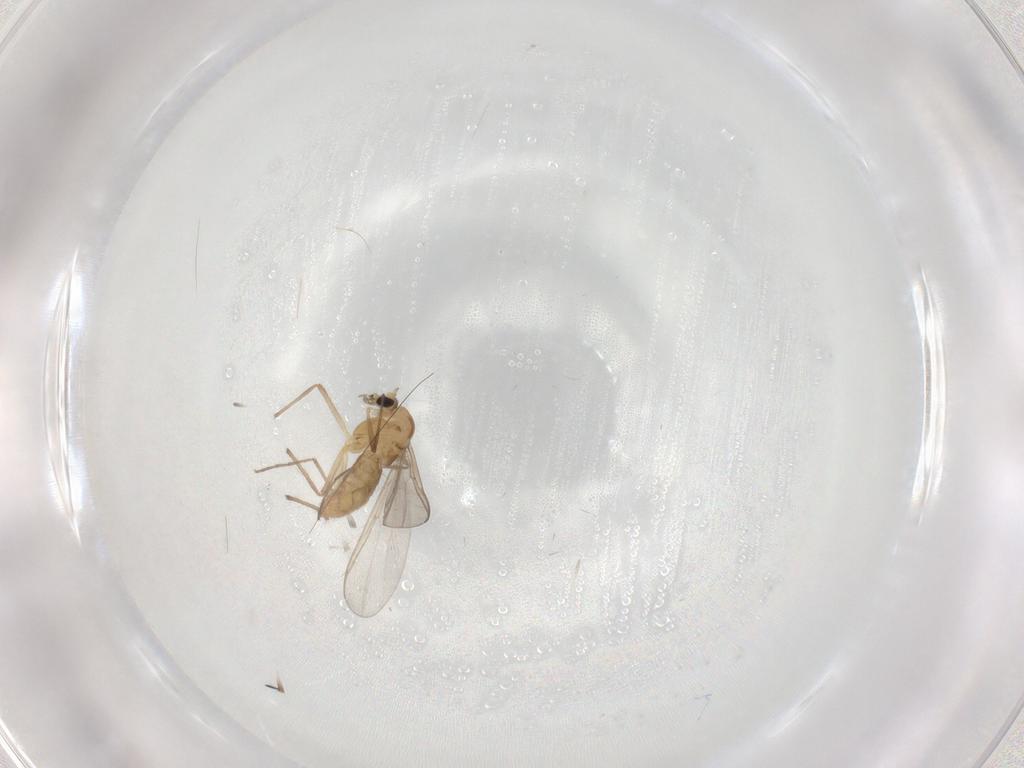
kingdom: Animalia
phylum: Arthropoda
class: Insecta
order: Diptera
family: Chironomidae
